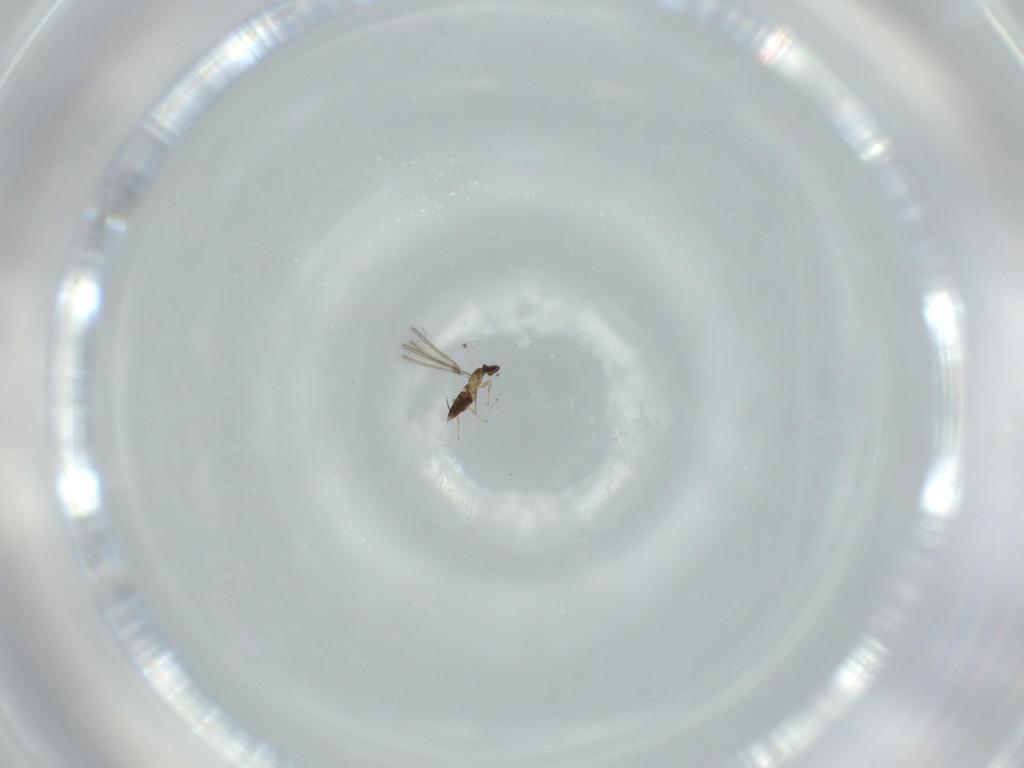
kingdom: Animalia
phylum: Arthropoda
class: Insecta
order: Hymenoptera
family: Mymaridae
